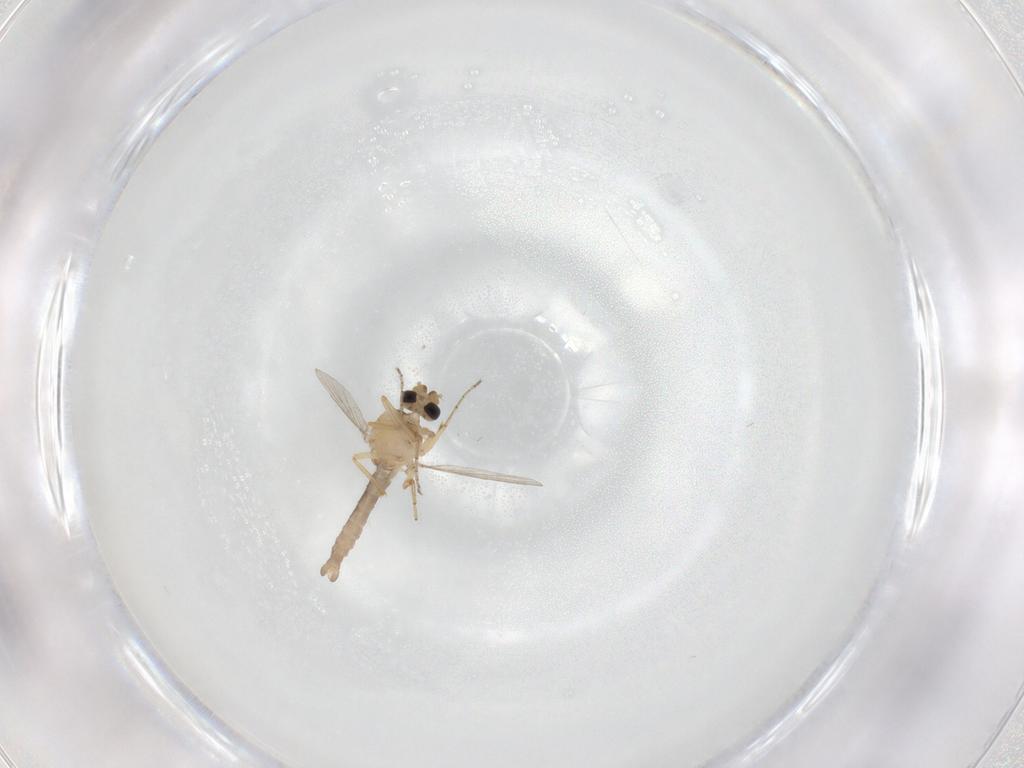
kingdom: Animalia
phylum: Arthropoda
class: Insecta
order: Diptera
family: Ceratopogonidae
